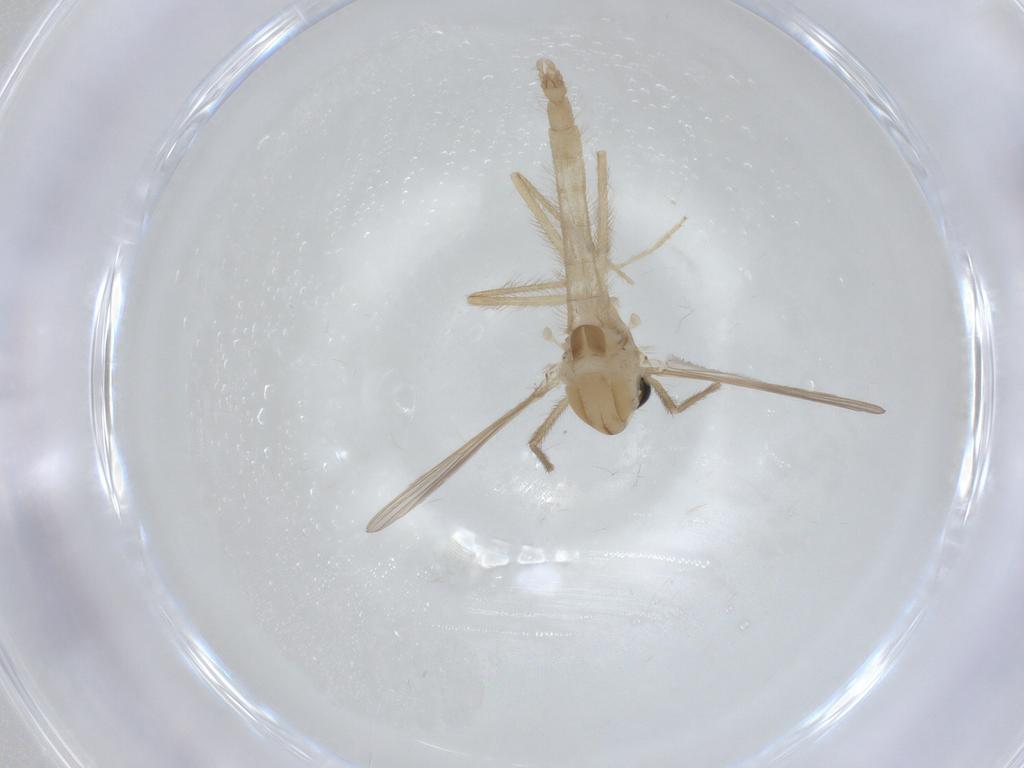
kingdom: Animalia
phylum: Arthropoda
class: Insecta
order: Diptera
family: Chironomidae
